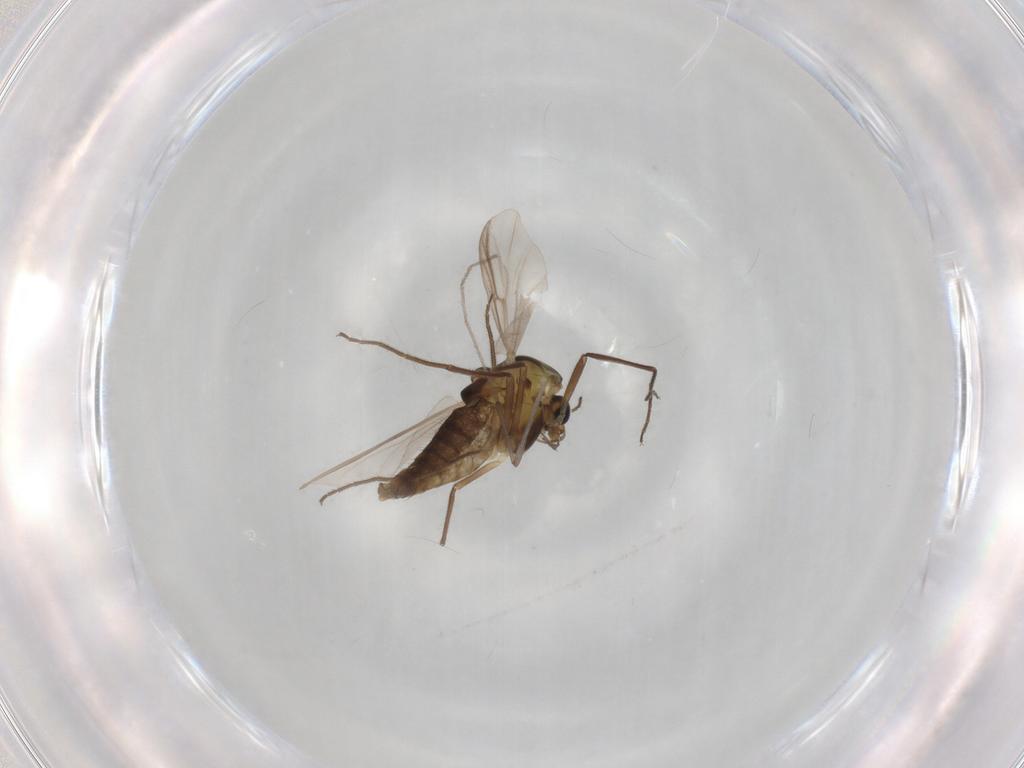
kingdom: Animalia
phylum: Arthropoda
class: Insecta
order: Diptera
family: Chironomidae
